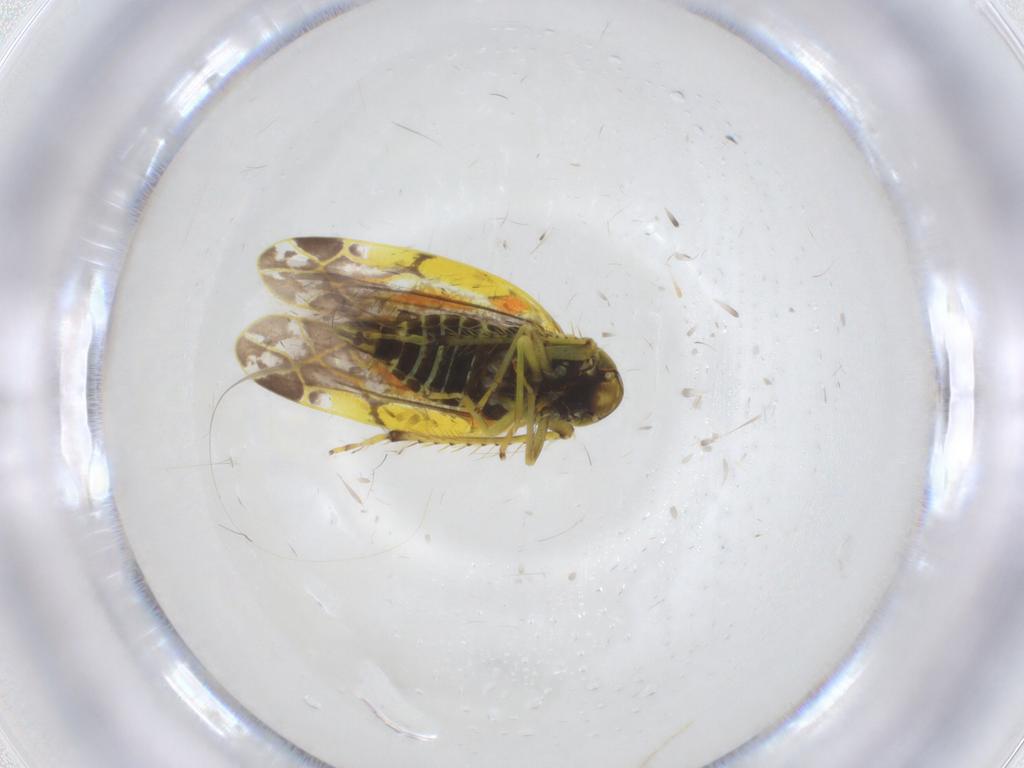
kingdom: Animalia
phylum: Arthropoda
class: Insecta
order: Hemiptera
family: Cicadellidae
